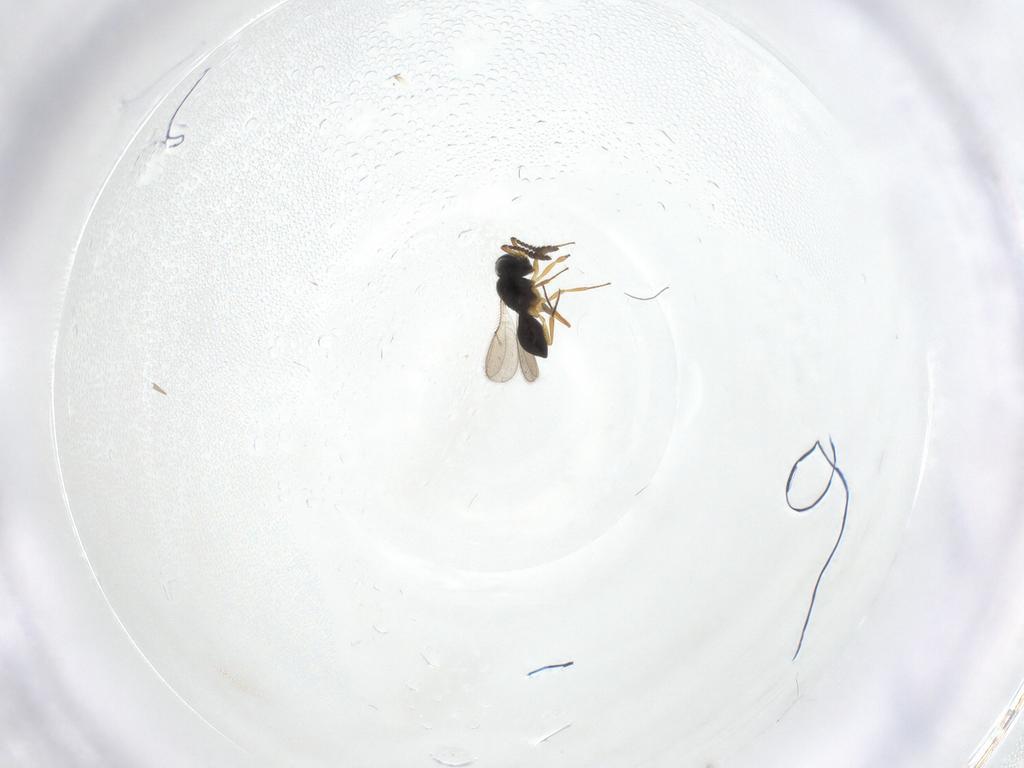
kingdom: Animalia
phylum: Arthropoda
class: Insecta
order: Hymenoptera
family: Scelionidae
